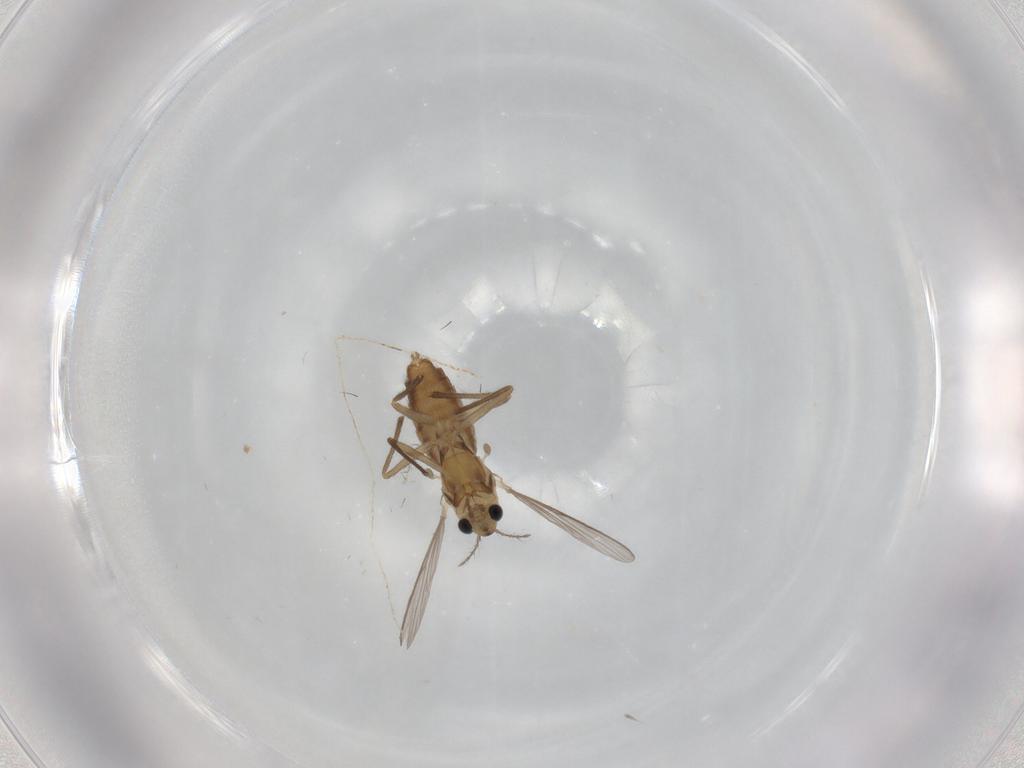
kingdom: Animalia
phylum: Arthropoda
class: Insecta
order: Diptera
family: Chironomidae
